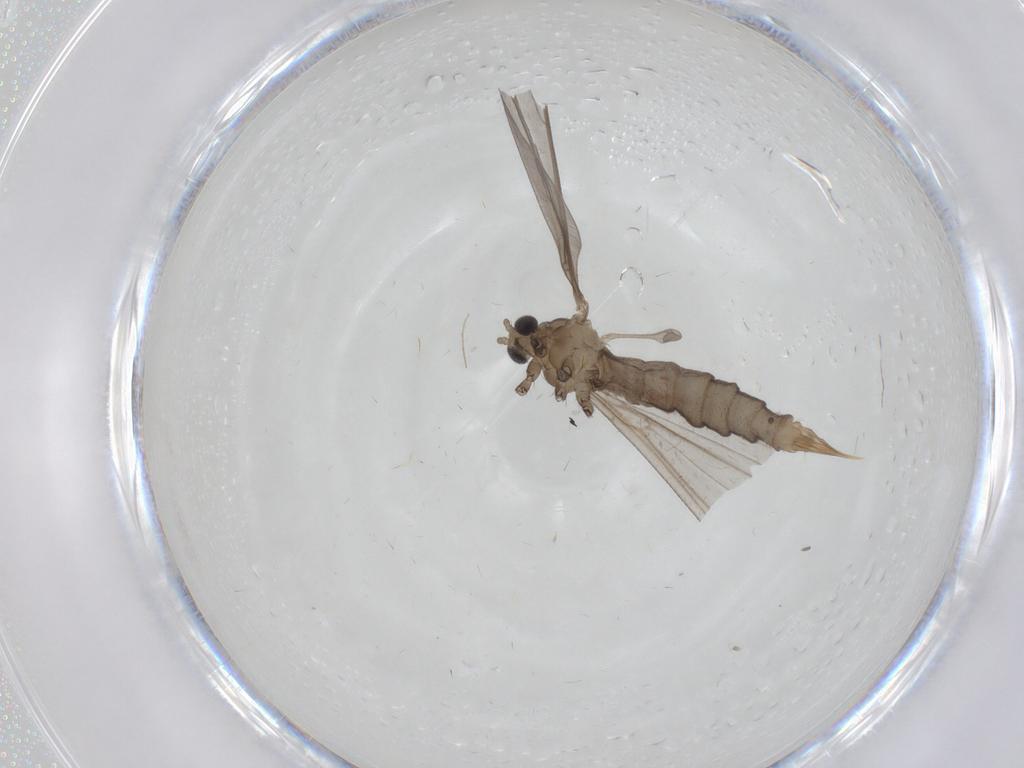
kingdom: Animalia
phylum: Arthropoda
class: Insecta
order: Diptera
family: Limoniidae
